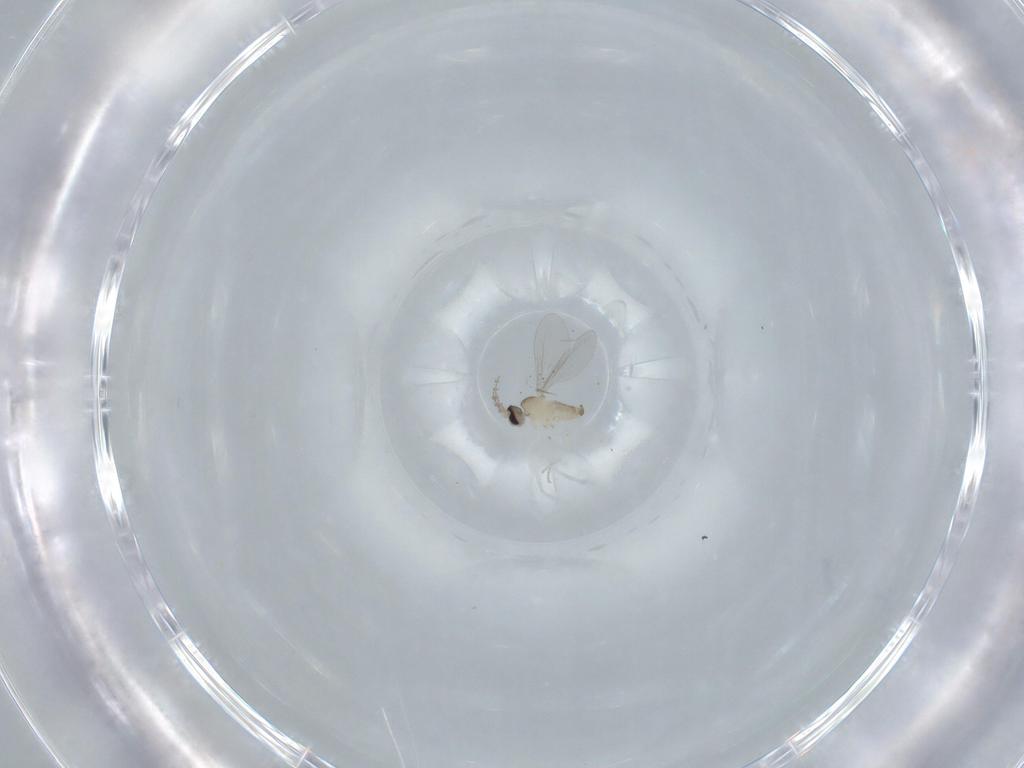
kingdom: Animalia
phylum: Arthropoda
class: Insecta
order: Diptera
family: Cecidomyiidae
